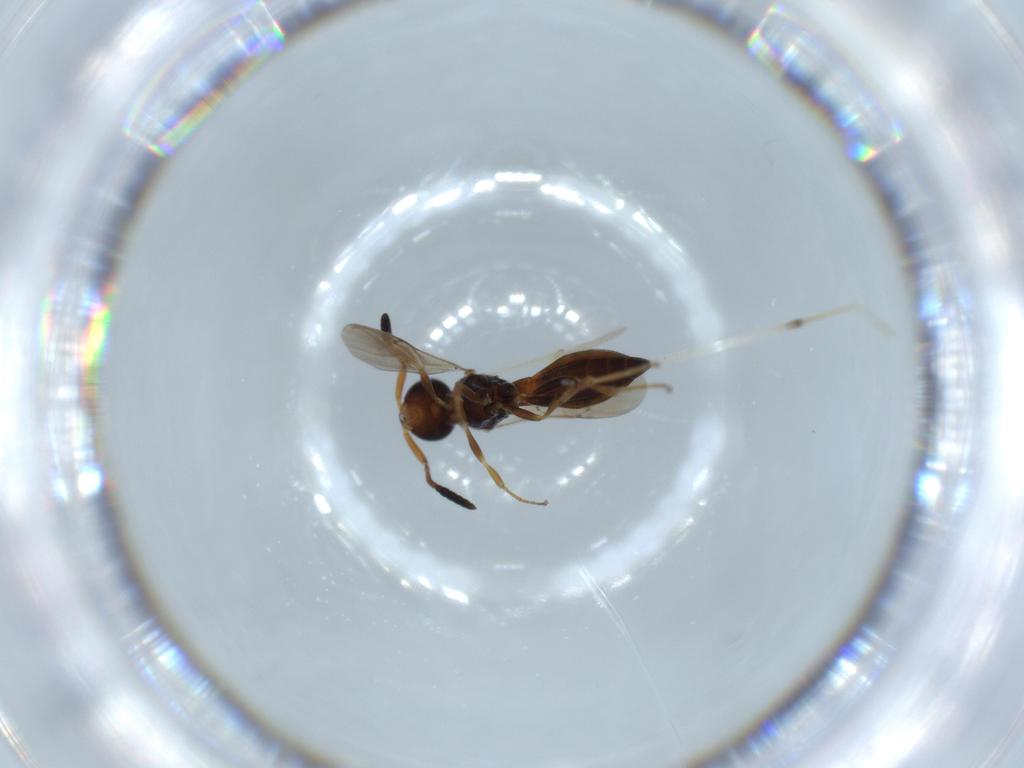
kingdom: Animalia
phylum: Arthropoda
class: Insecta
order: Hymenoptera
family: Scelionidae
